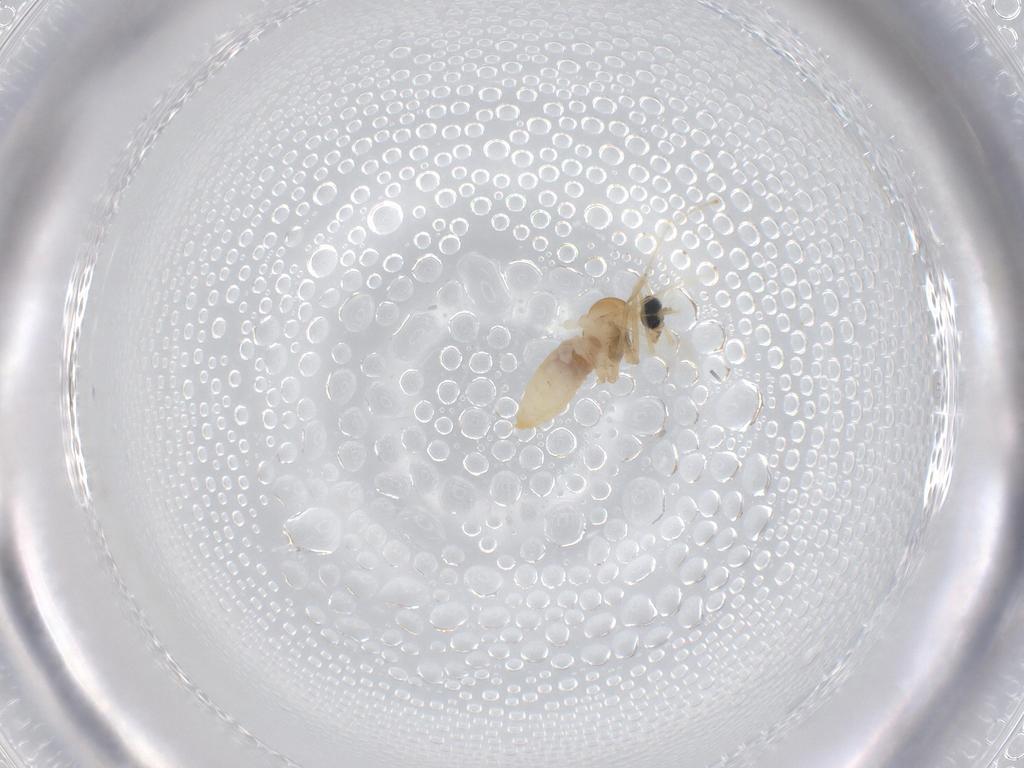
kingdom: Animalia
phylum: Arthropoda
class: Insecta
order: Diptera
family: Cecidomyiidae
